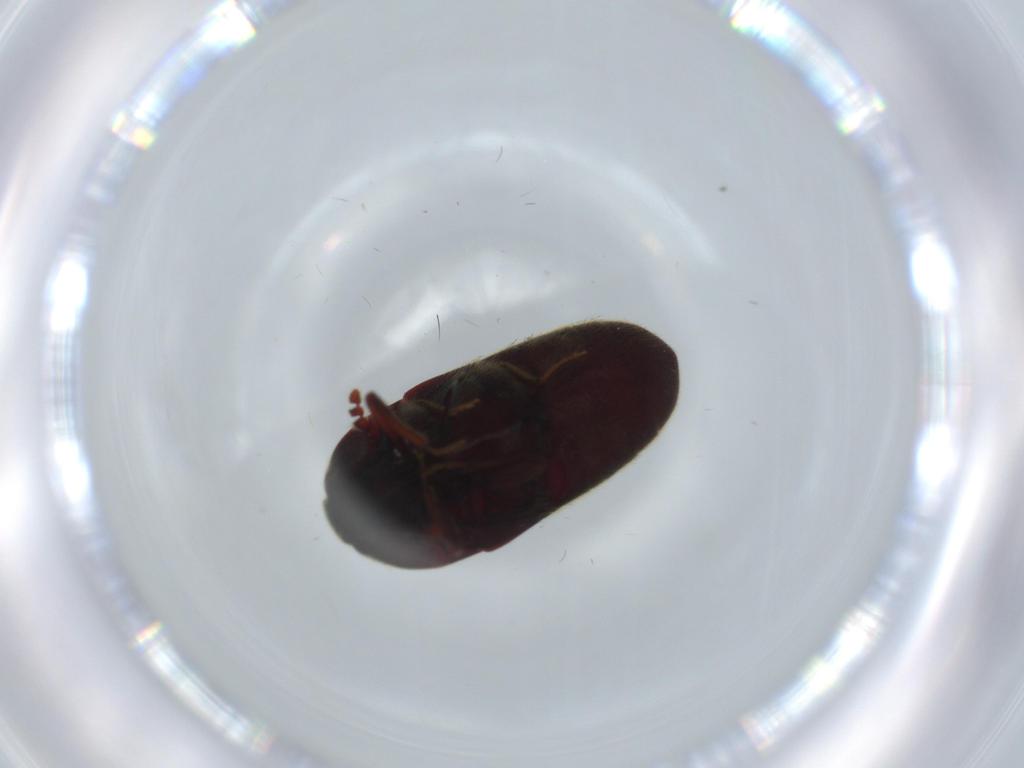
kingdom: Animalia
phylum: Arthropoda
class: Insecta
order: Coleoptera
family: Throscidae
